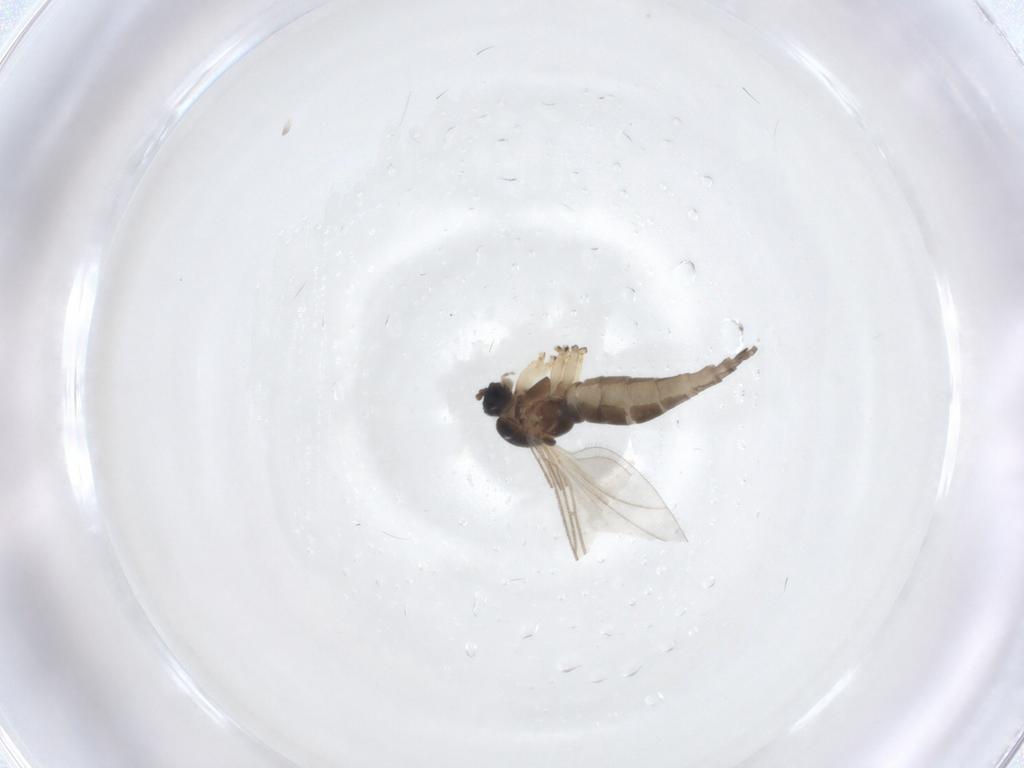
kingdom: Animalia
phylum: Arthropoda
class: Insecta
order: Diptera
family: Sciaridae
